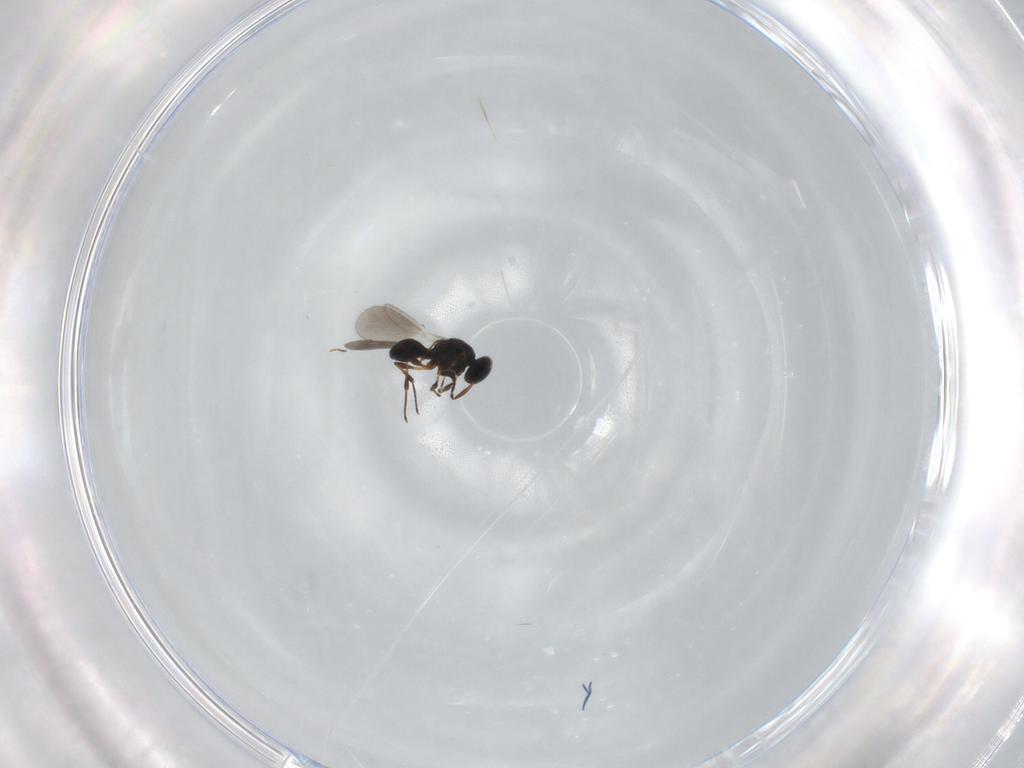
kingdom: Animalia
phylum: Arthropoda
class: Insecta
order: Hymenoptera
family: Platygastridae
